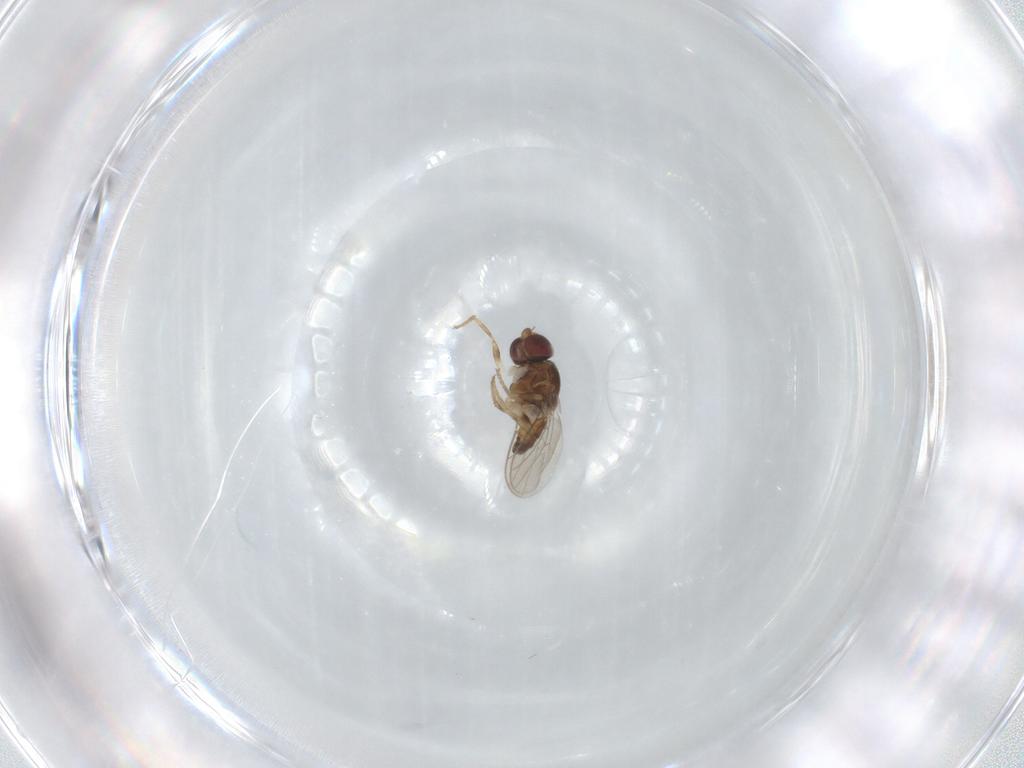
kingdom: Animalia
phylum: Arthropoda
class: Insecta
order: Diptera
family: Chloropidae
